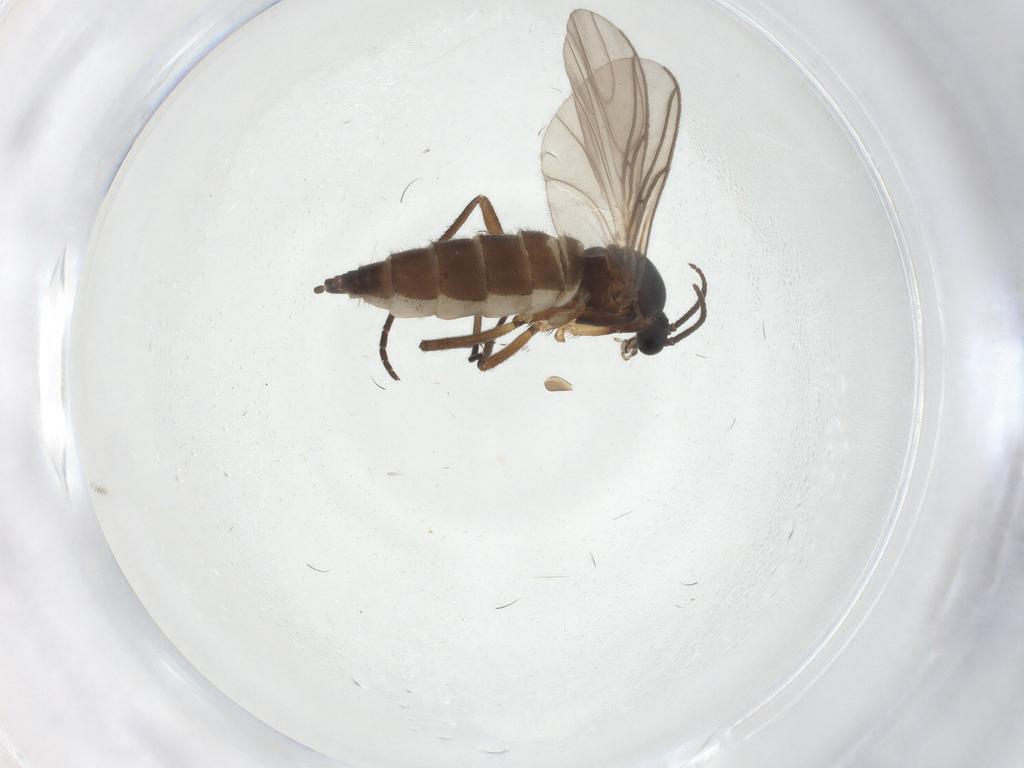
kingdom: Animalia
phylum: Arthropoda
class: Insecta
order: Diptera
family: Sciaridae
